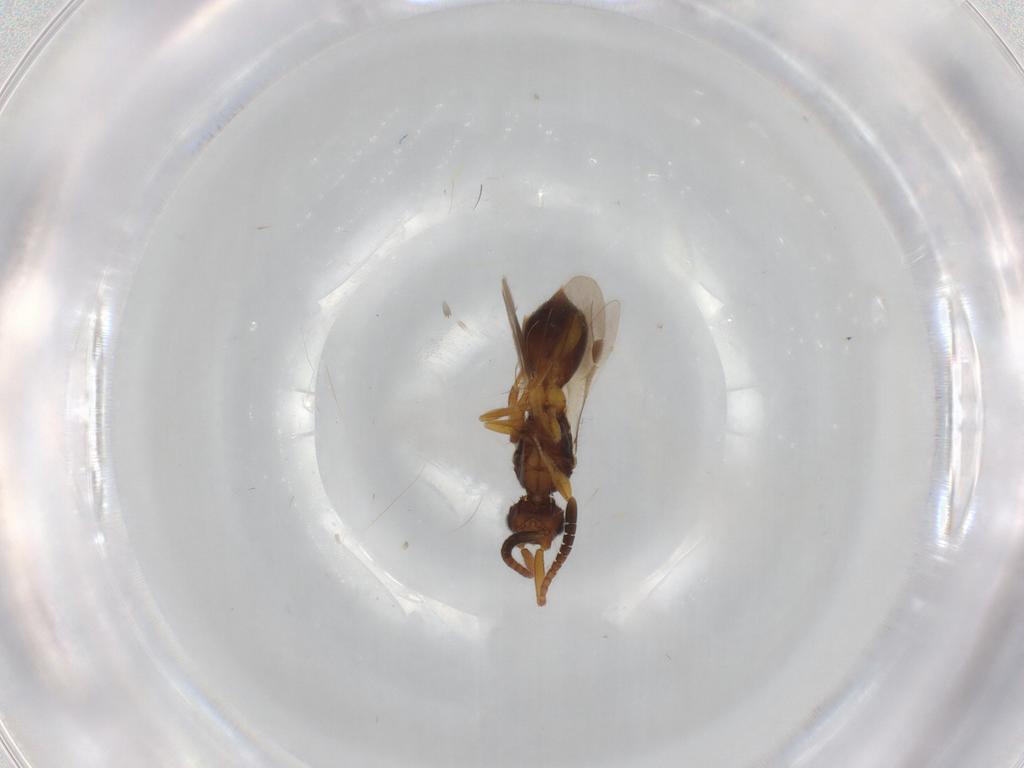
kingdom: Animalia
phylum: Arthropoda
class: Insecta
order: Hymenoptera
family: Megaspilidae
